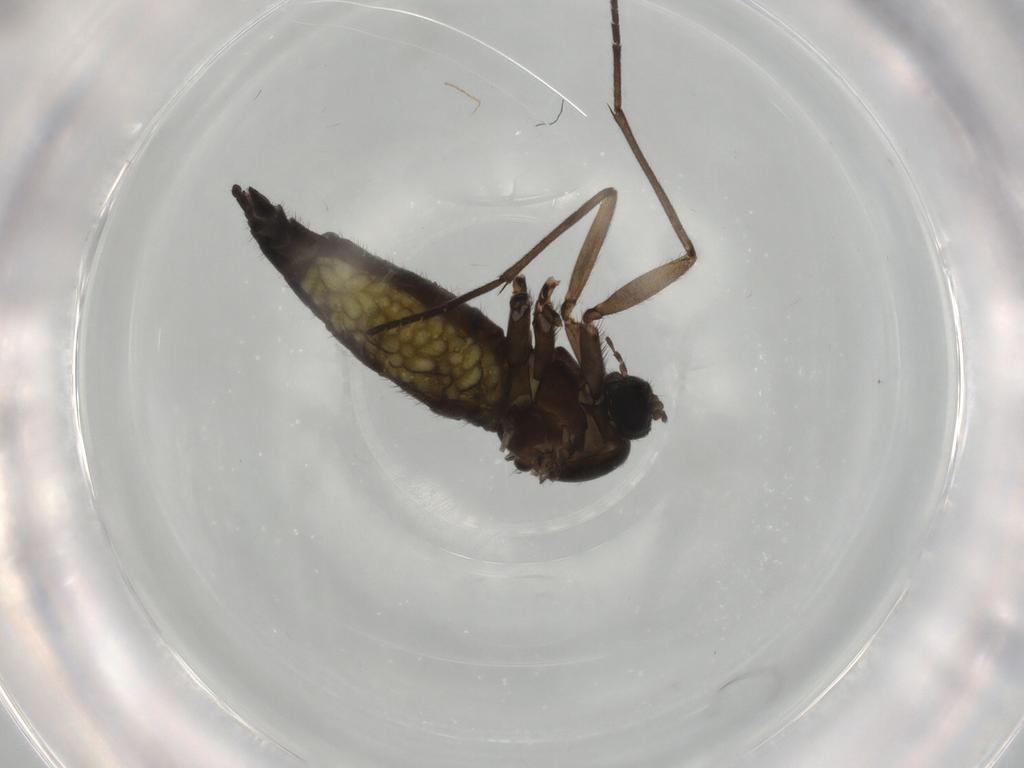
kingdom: Animalia
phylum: Arthropoda
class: Insecta
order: Diptera
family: Sciaridae
